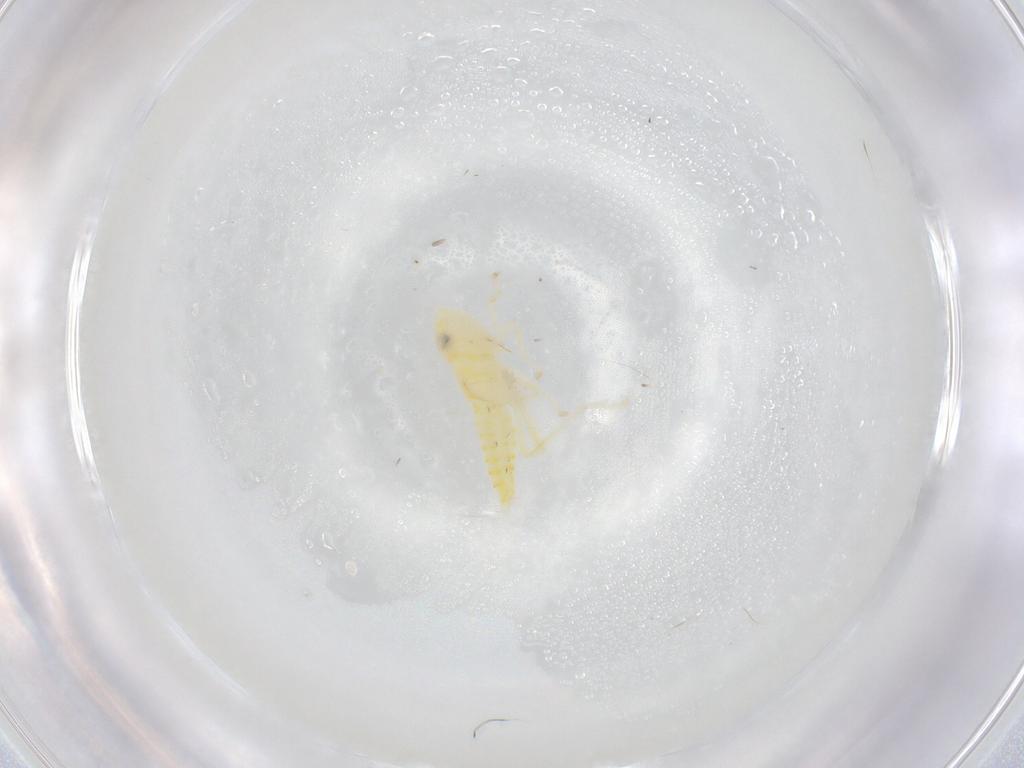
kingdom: Animalia
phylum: Arthropoda
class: Insecta
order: Hemiptera
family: Cicadellidae
